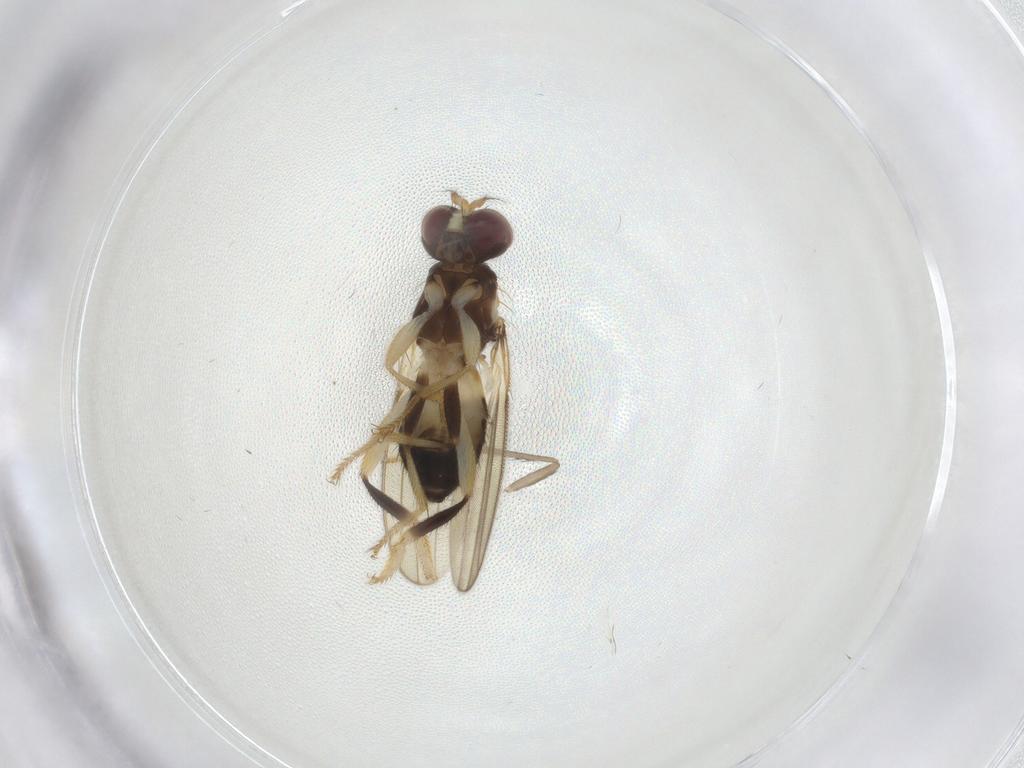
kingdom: Animalia
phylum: Arthropoda
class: Insecta
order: Diptera
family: Periscelididae
